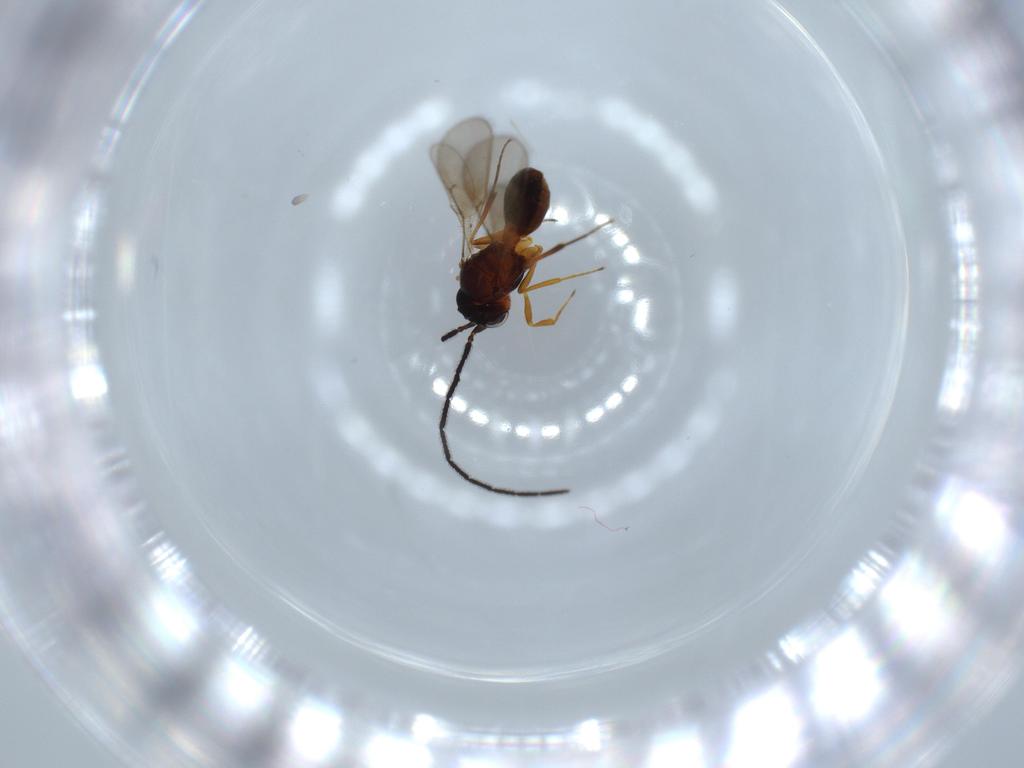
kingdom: Animalia
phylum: Arthropoda
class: Insecta
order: Hymenoptera
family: Scelionidae
